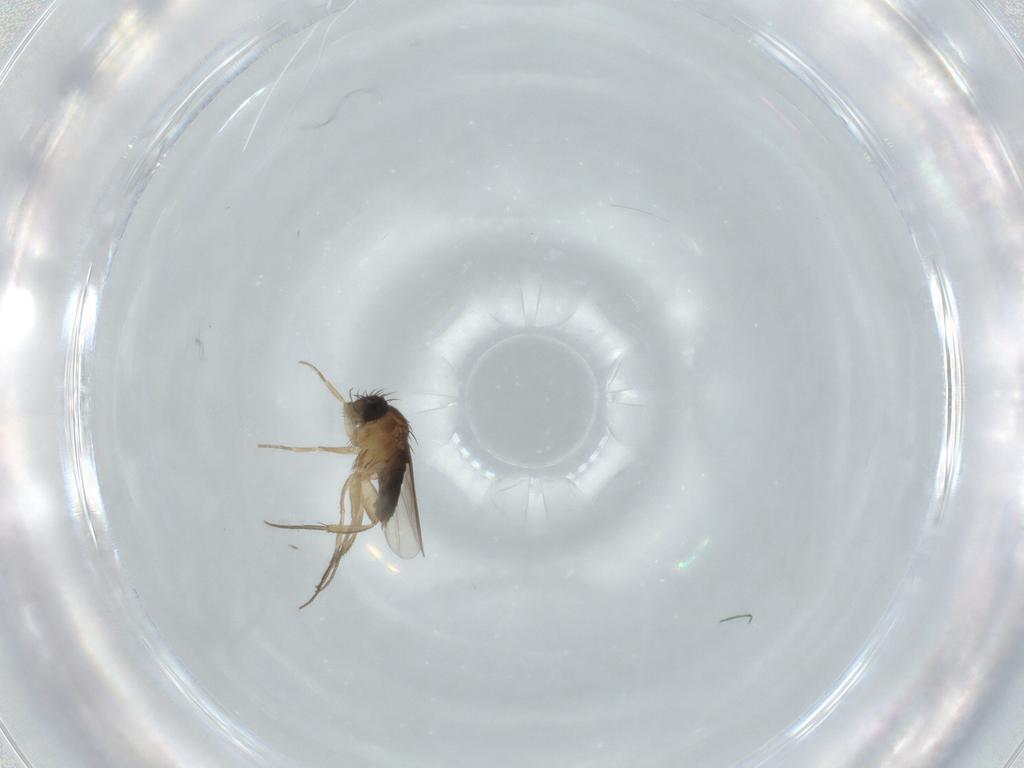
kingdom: Animalia
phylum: Arthropoda
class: Insecta
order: Diptera
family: Phoridae
